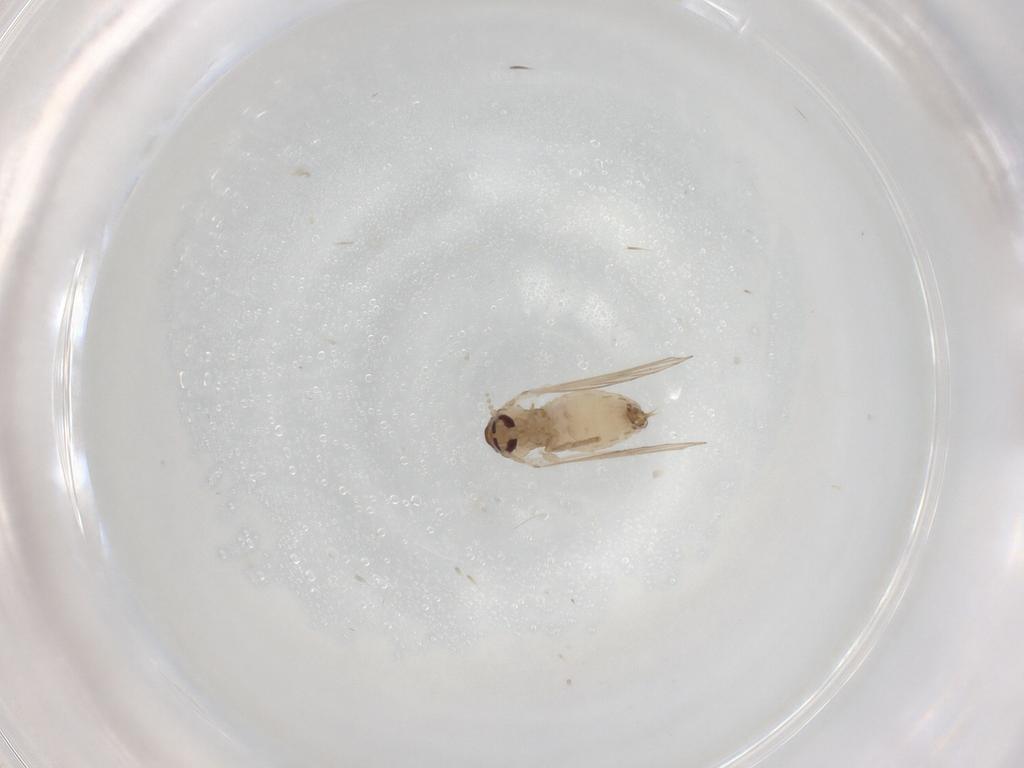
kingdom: Animalia
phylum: Arthropoda
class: Insecta
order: Diptera
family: Psychodidae
